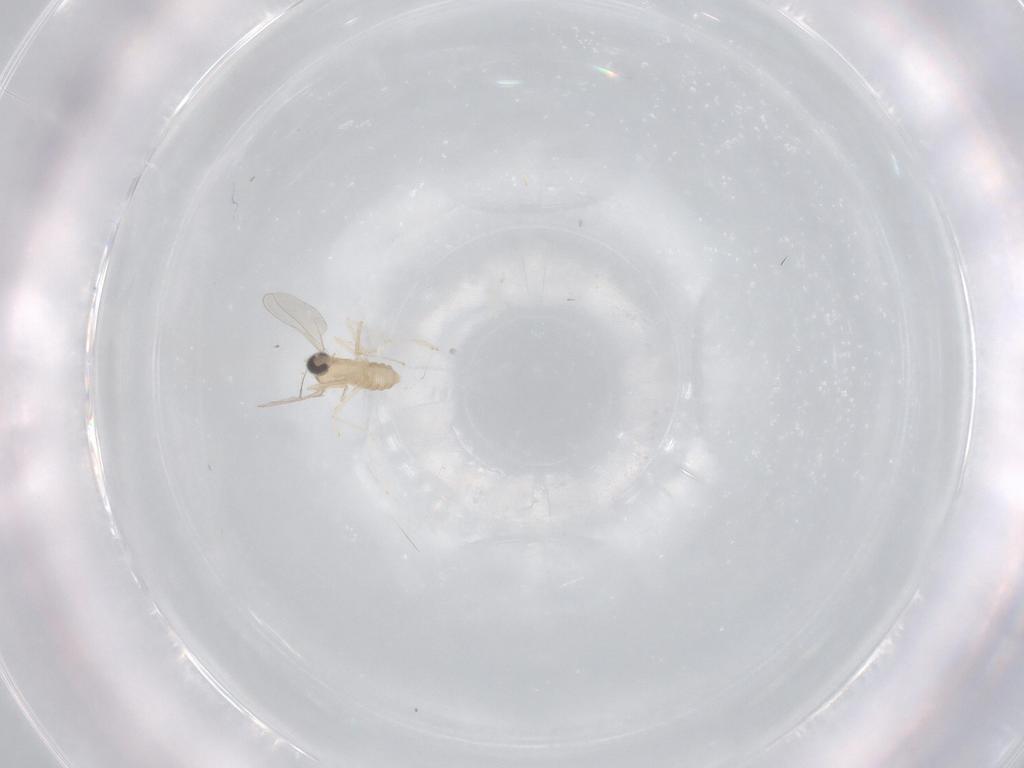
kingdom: Animalia
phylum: Arthropoda
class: Insecta
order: Diptera
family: Cecidomyiidae
